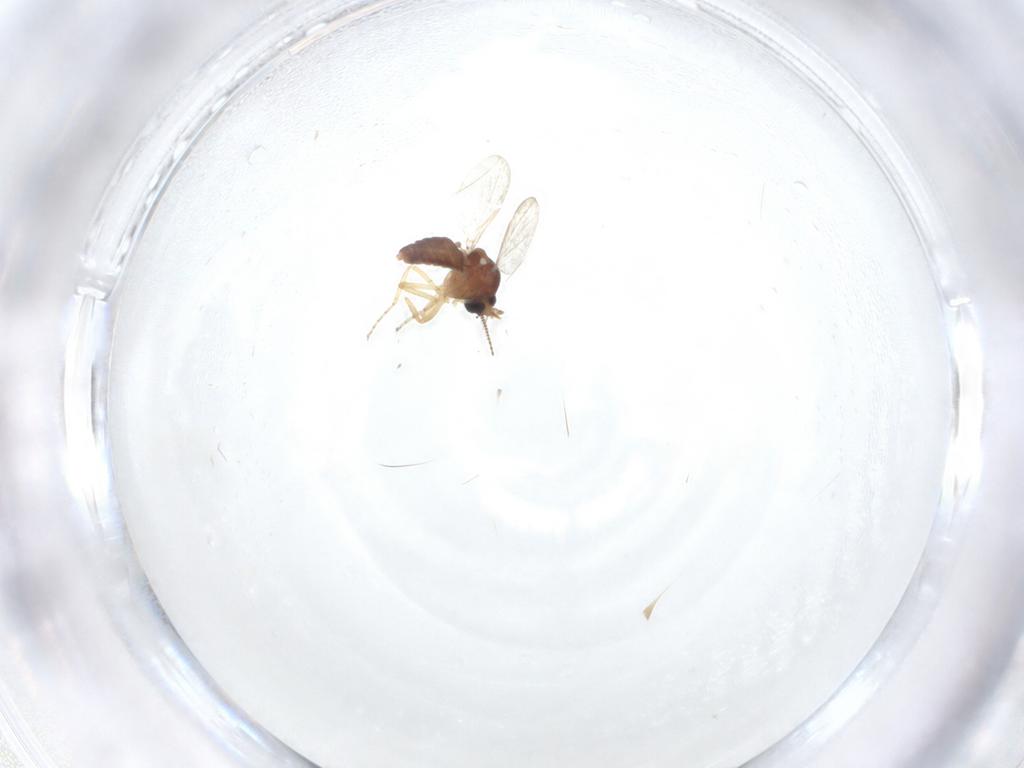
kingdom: Animalia
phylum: Arthropoda
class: Insecta
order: Diptera
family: Ceratopogonidae
